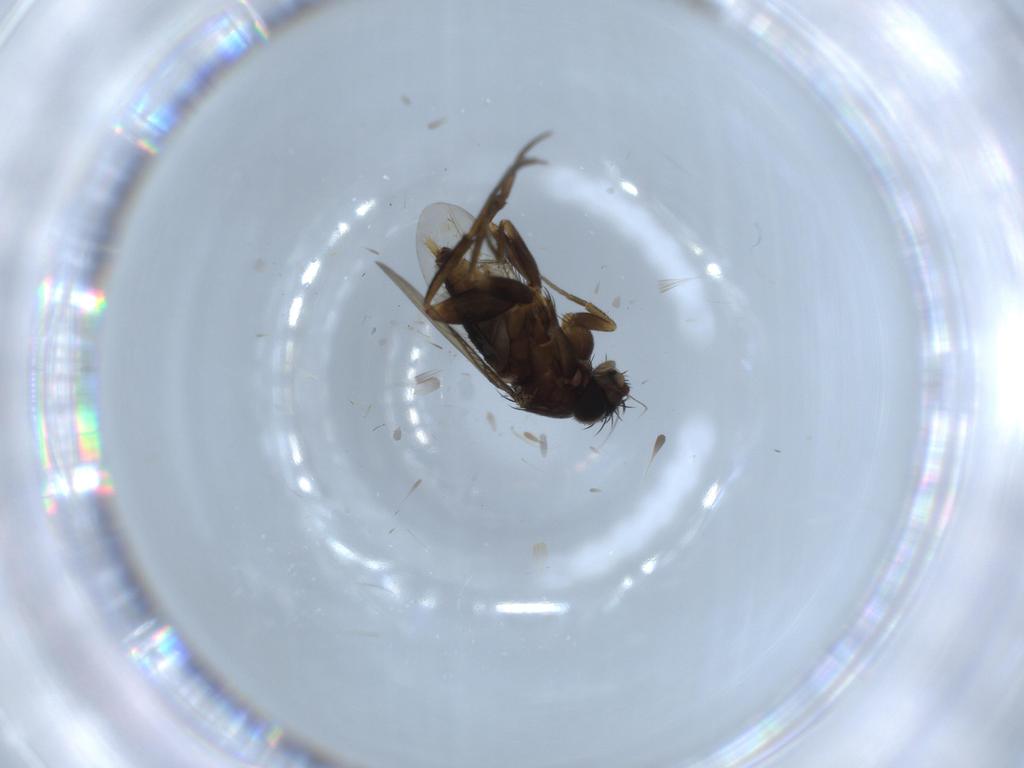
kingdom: Animalia
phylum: Arthropoda
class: Insecta
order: Diptera
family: Phoridae
